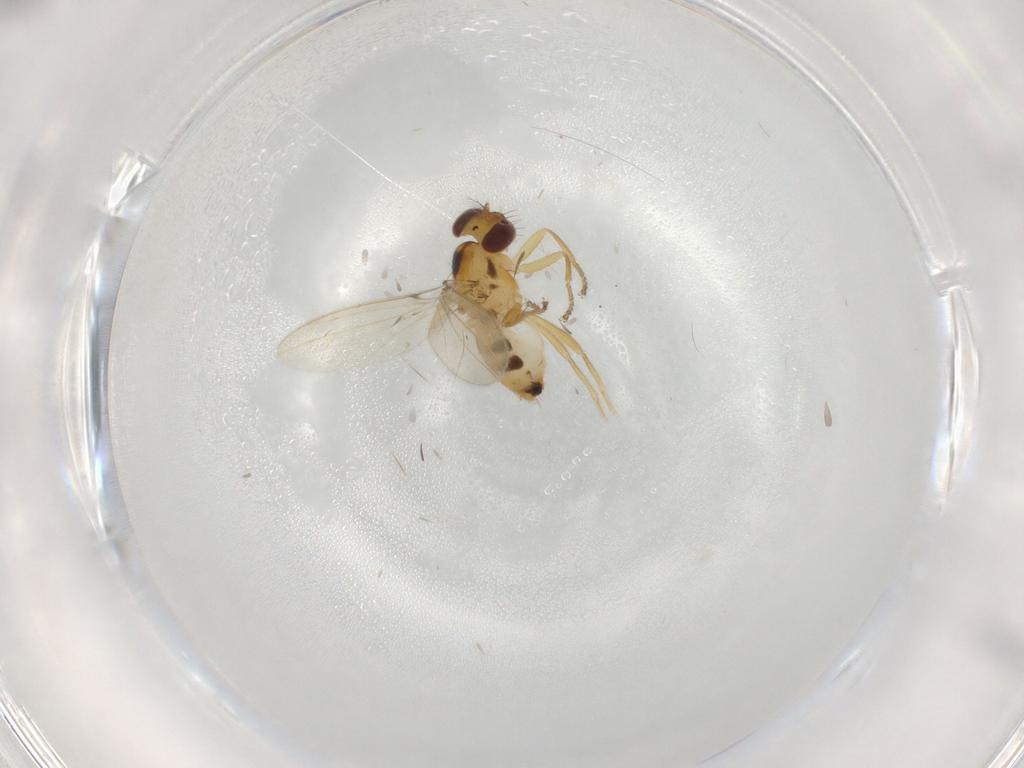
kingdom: Animalia
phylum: Arthropoda
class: Insecta
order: Diptera
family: Periscelididae
